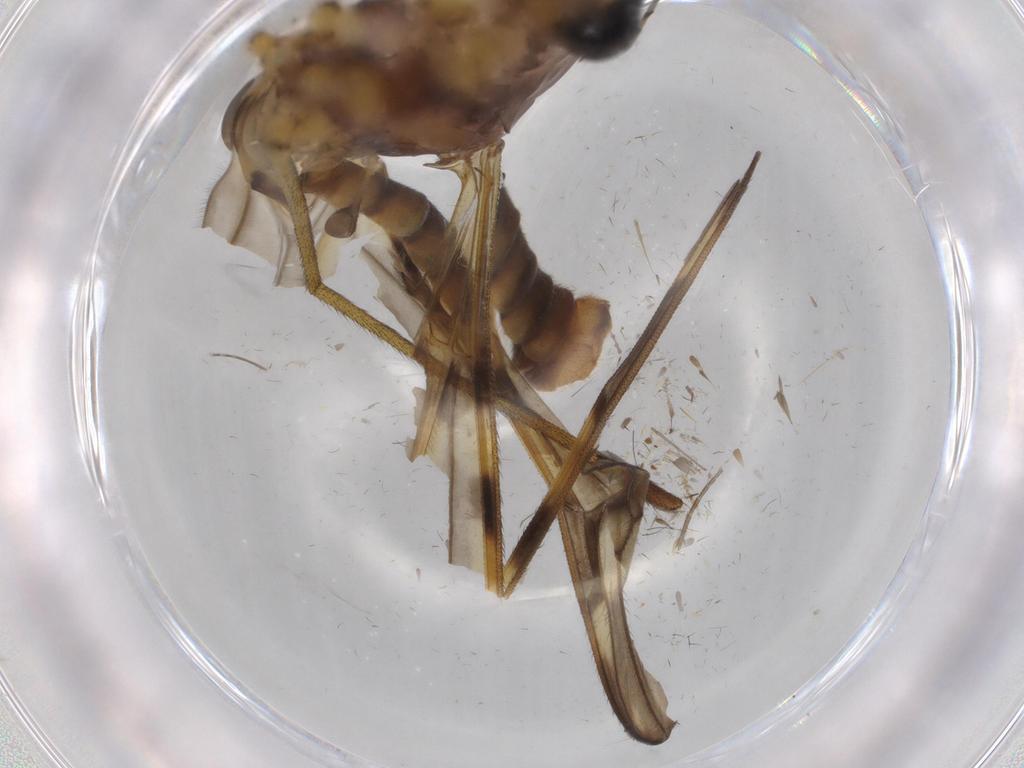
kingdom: Animalia
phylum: Arthropoda
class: Insecta
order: Diptera
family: Phoridae
